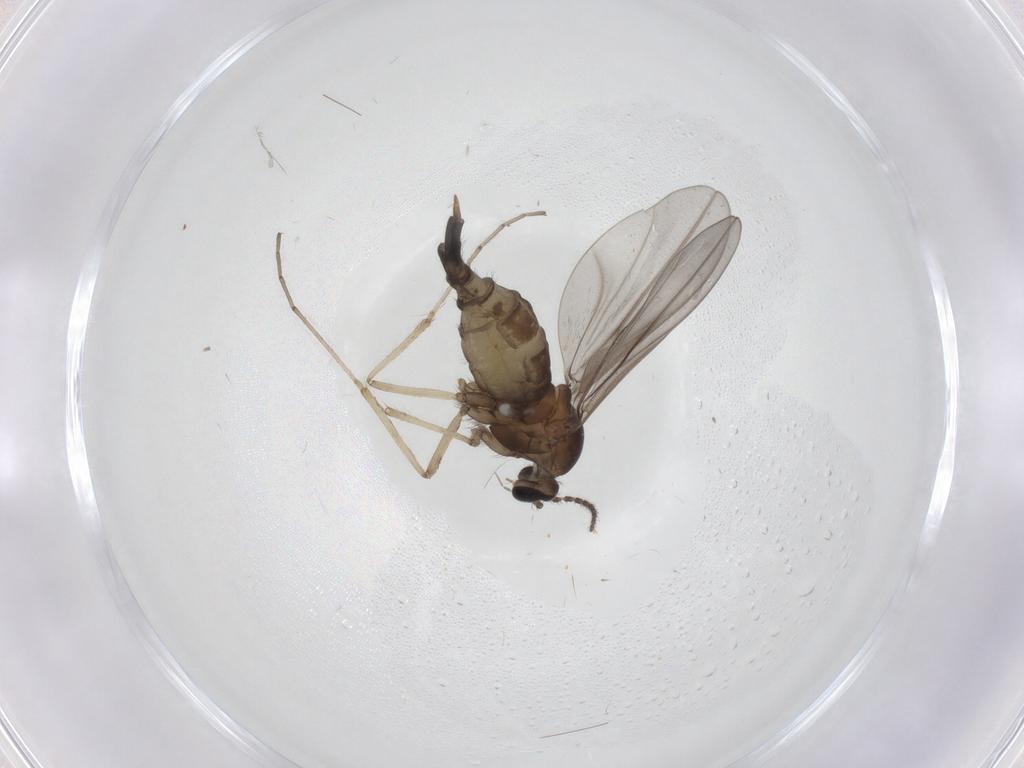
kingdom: Animalia
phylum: Arthropoda
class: Insecta
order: Diptera
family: Cecidomyiidae
